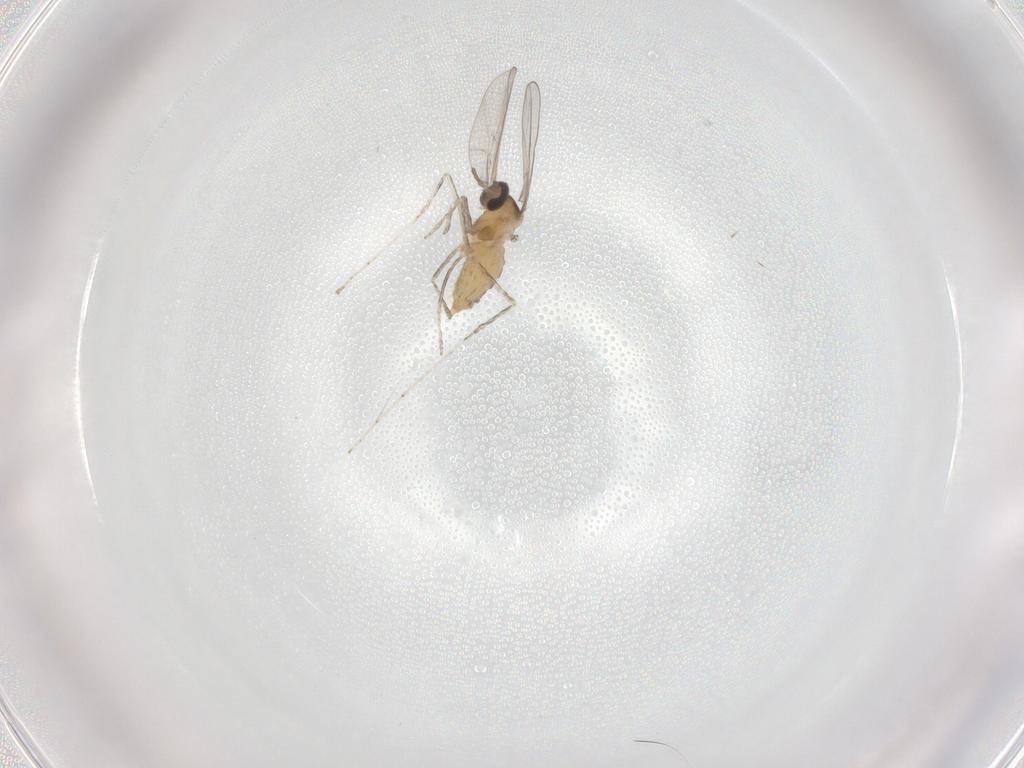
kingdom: Animalia
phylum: Arthropoda
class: Insecta
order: Diptera
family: Cecidomyiidae
